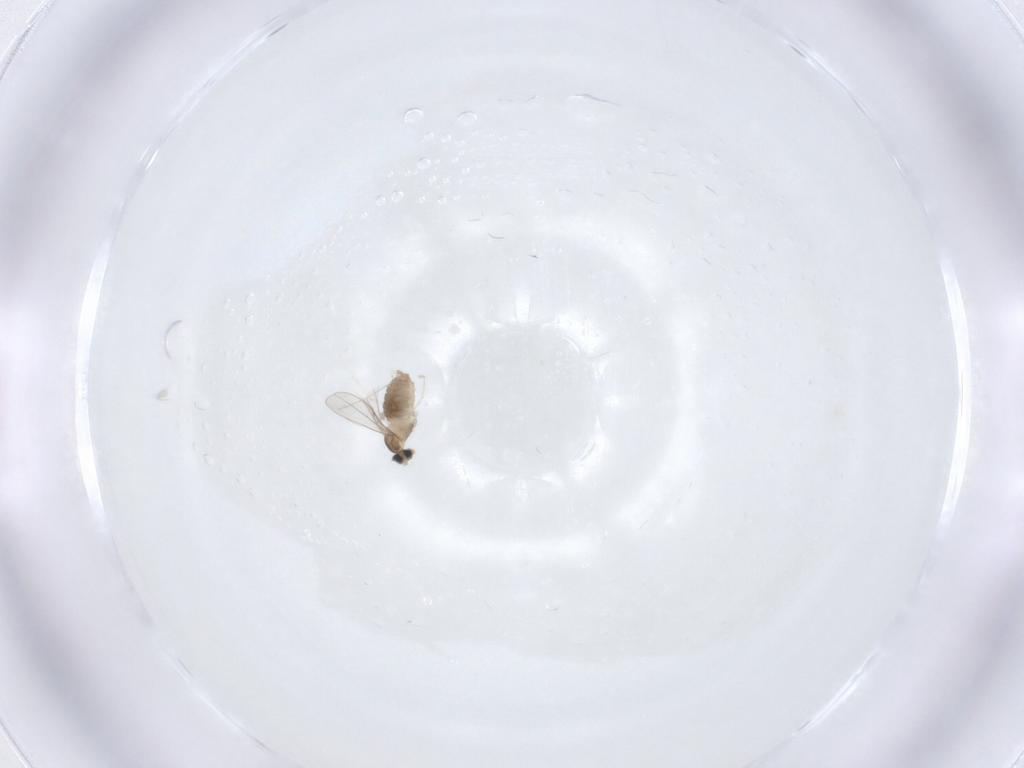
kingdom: Animalia
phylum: Arthropoda
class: Insecta
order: Diptera
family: Cecidomyiidae
